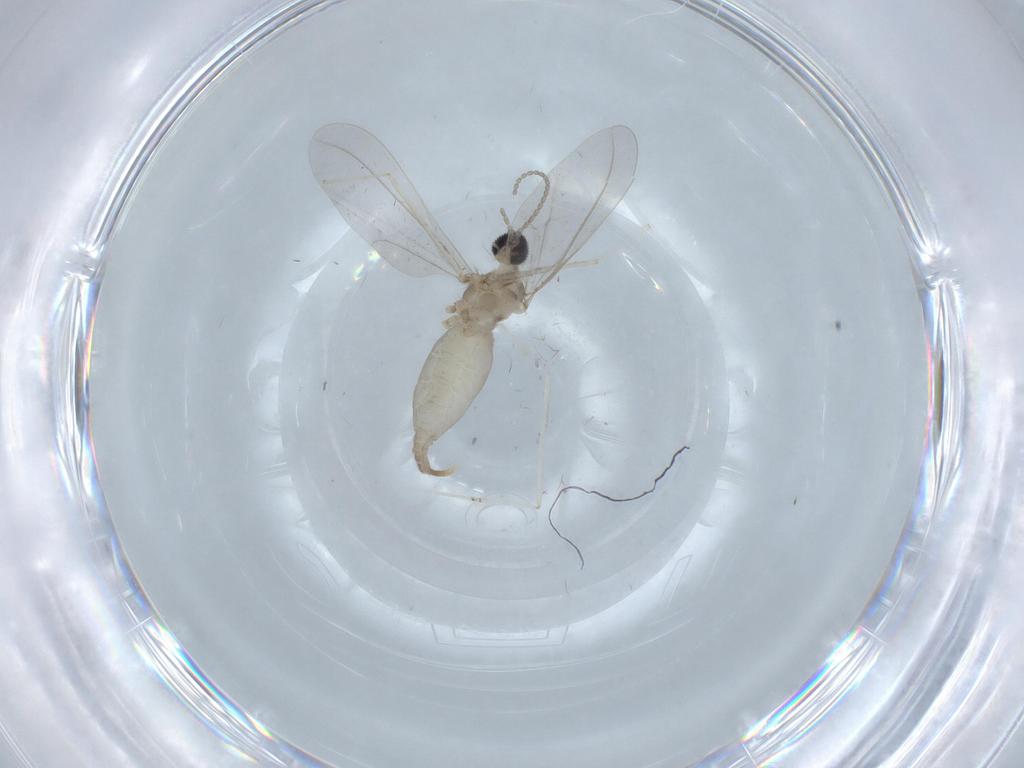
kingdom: Animalia
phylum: Arthropoda
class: Insecta
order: Diptera
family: Cecidomyiidae
